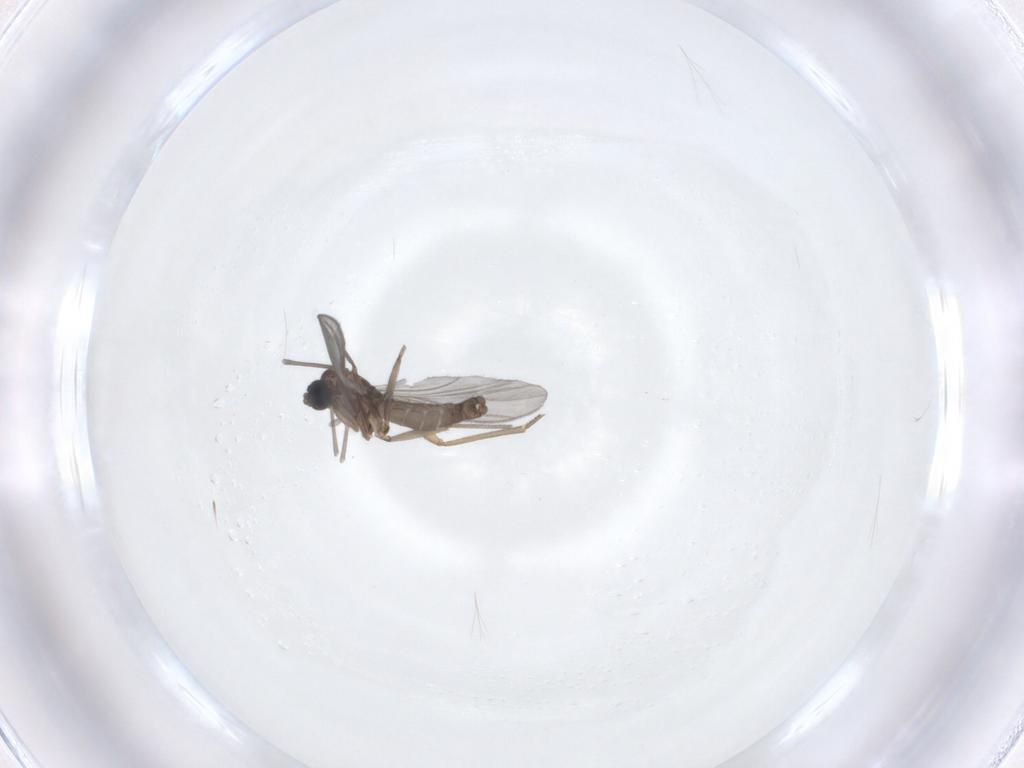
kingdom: Animalia
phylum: Arthropoda
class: Insecta
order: Diptera
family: Sciaridae
